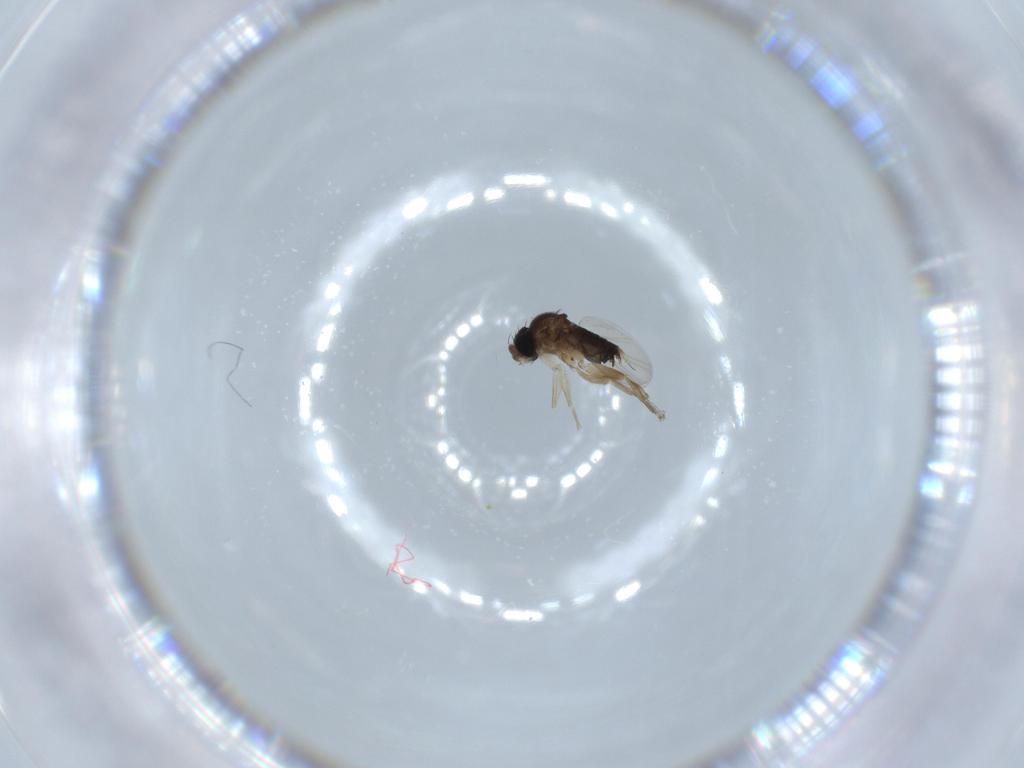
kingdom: Animalia
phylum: Arthropoda
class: Insecta
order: Diptera
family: Phoridae
